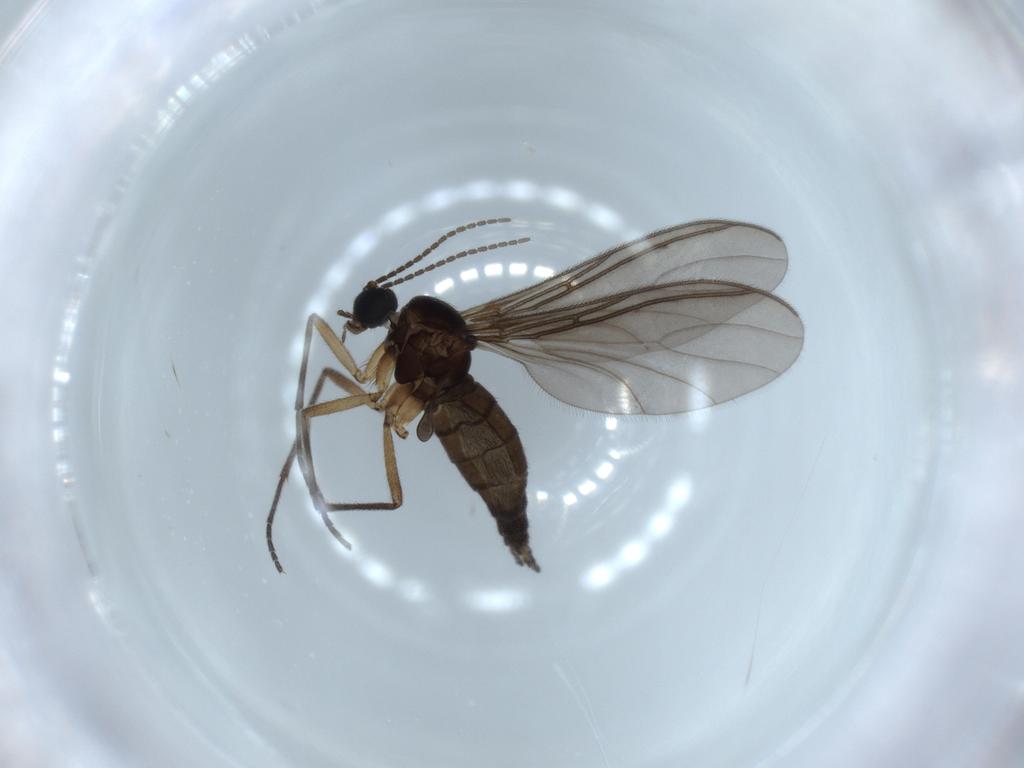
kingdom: Animalia
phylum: Arthropoda
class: Insecta
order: Diptera
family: Sciaridae
